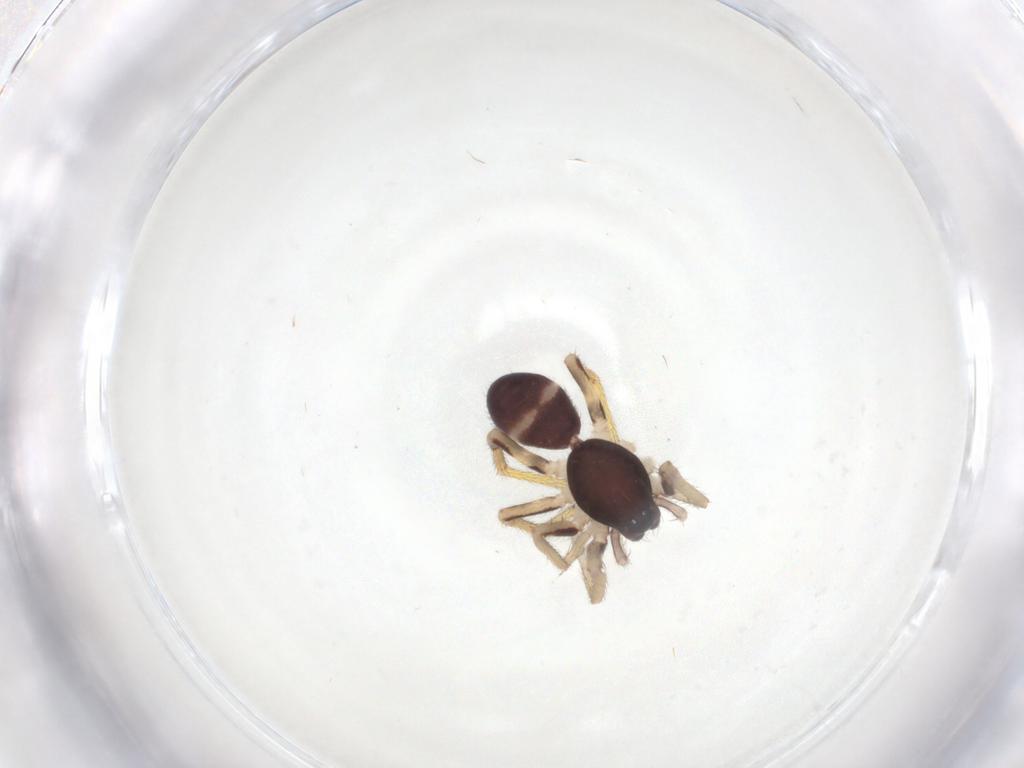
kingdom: Animalia
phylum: Arthropoda
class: Arachnida
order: Araneae
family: Corinnidae
